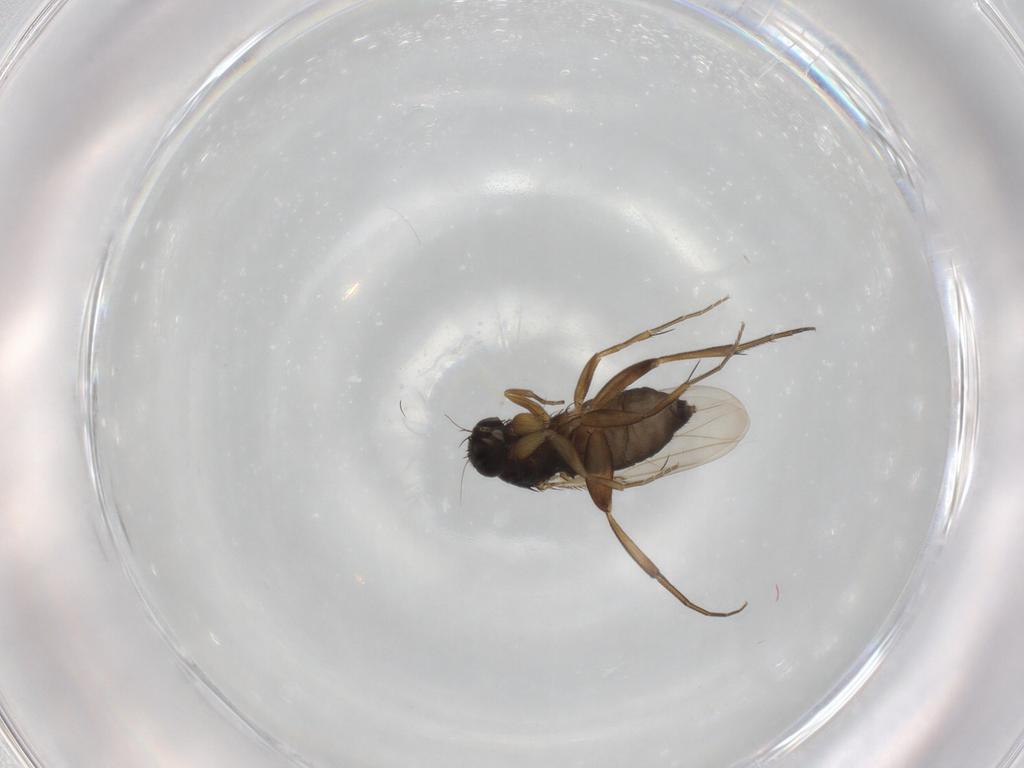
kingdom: Animalia
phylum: Arthropoda
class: Insecta
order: Diptera
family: Phoridae
